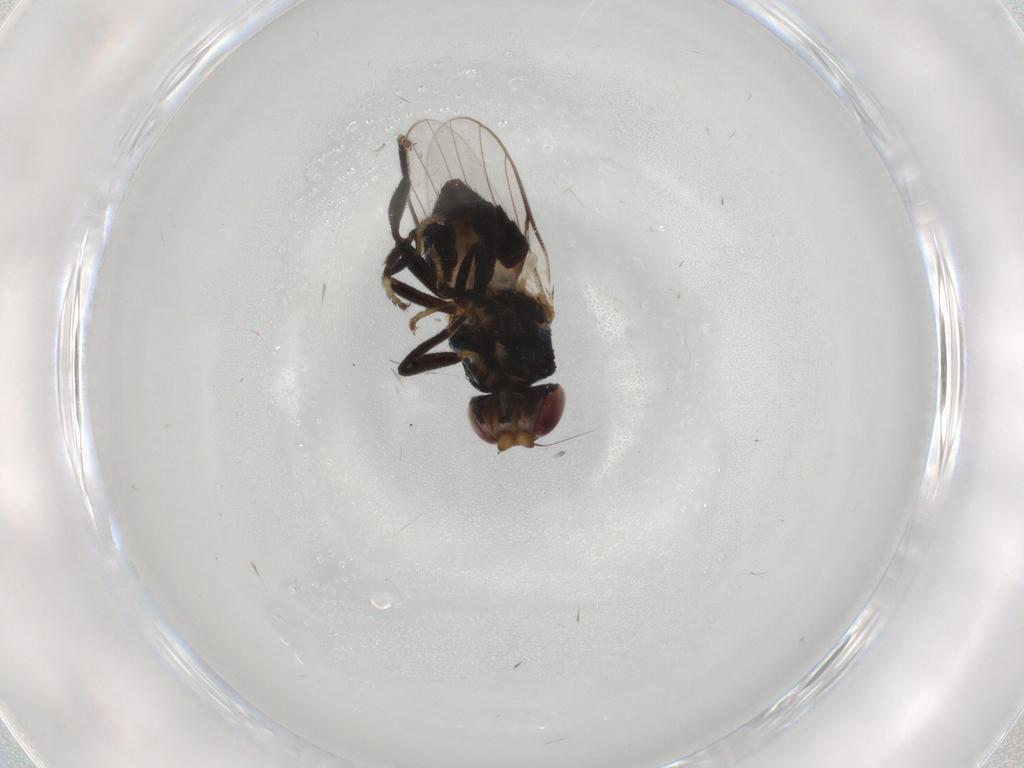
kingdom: Animalia
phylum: Arthropoda
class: Insecta
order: Diptera
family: Chloropidae
